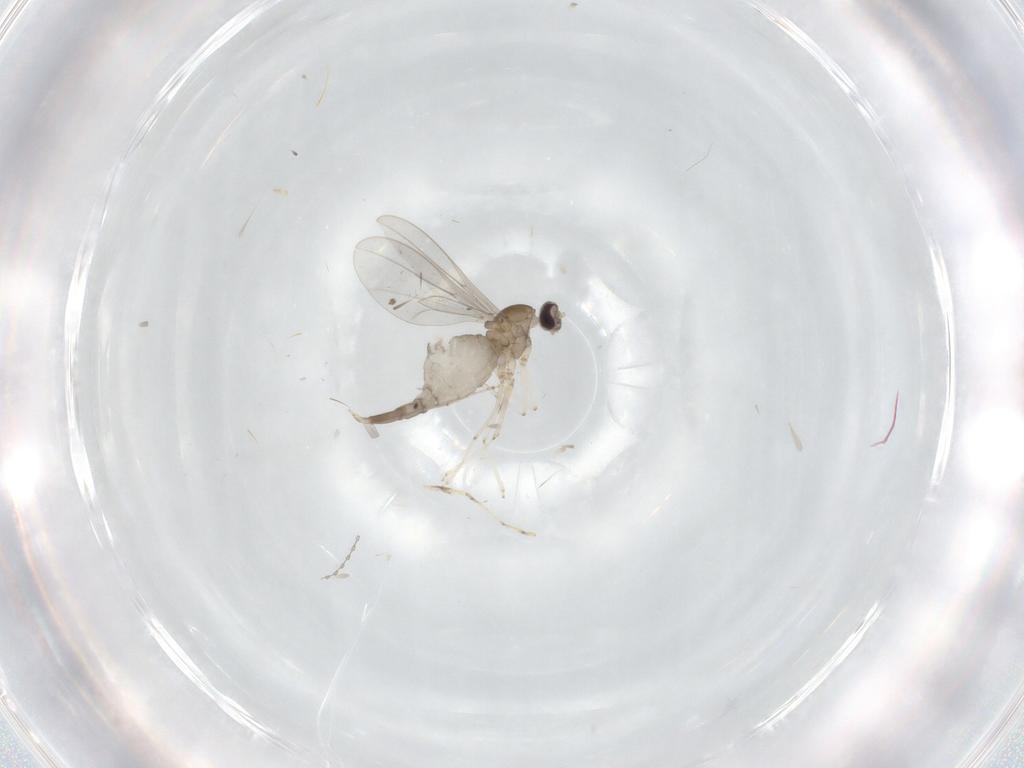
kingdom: Animalia
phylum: Arthropoda
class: Insecta
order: Diptera
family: Cecidomyiidae
